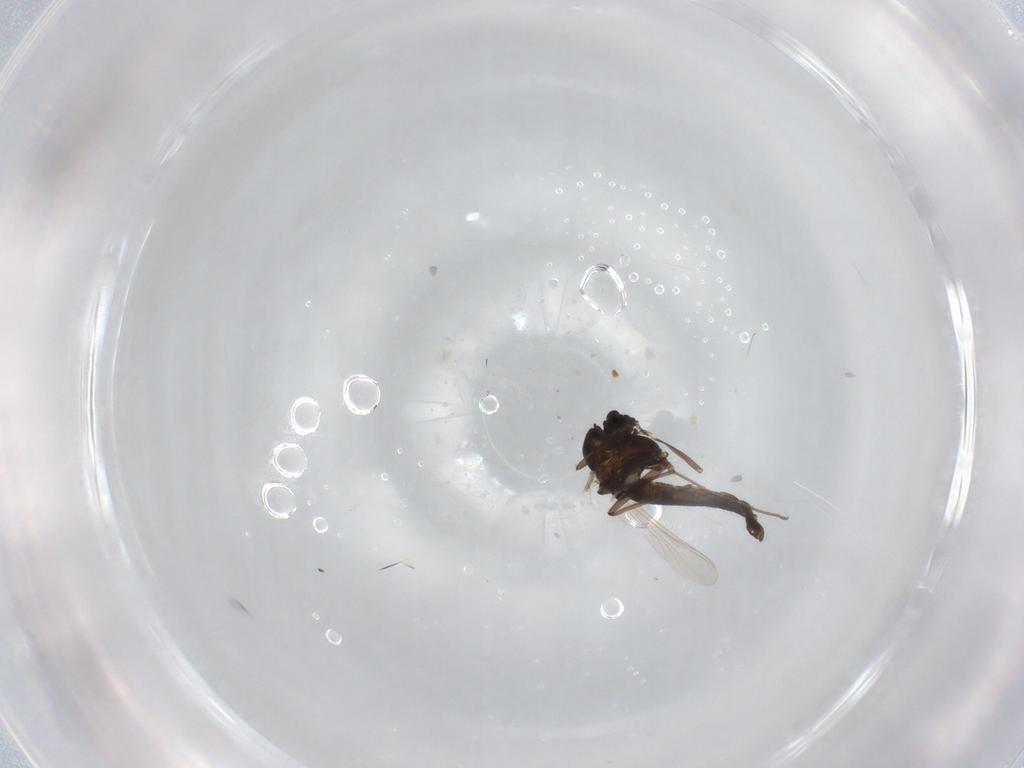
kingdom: Animalia
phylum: Arthropoda
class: Insecta
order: Diptera
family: Chironomidae
